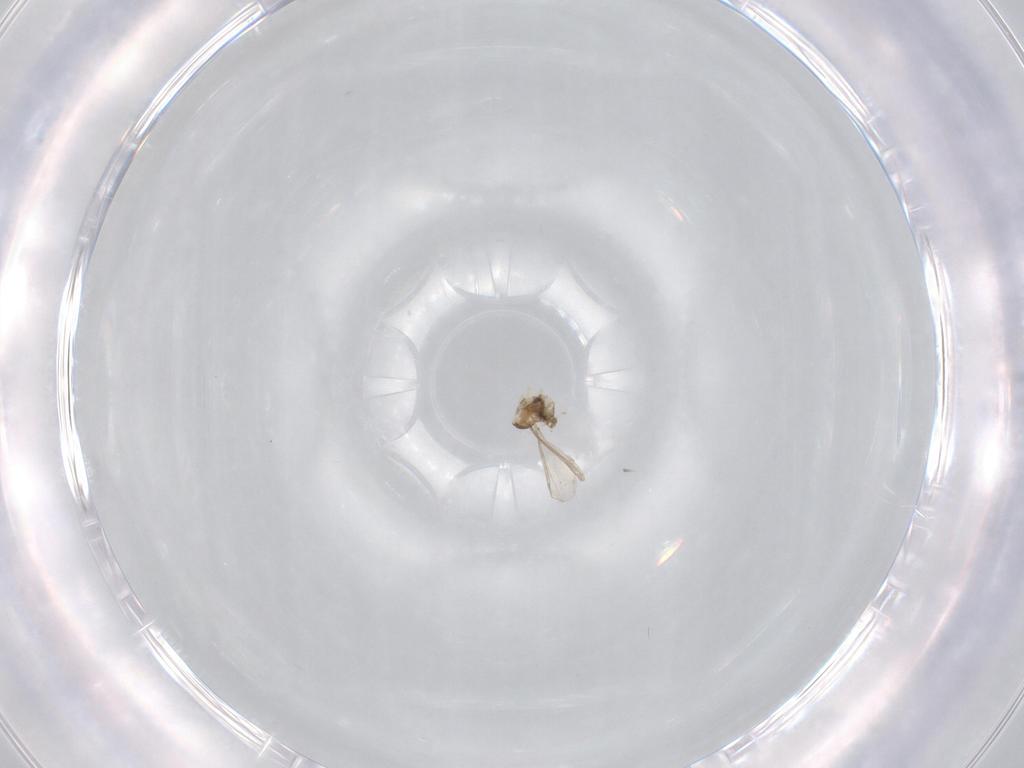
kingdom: Animalia
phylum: Arthropoda
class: Insecta
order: Diptera
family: Cecidomyiidae
